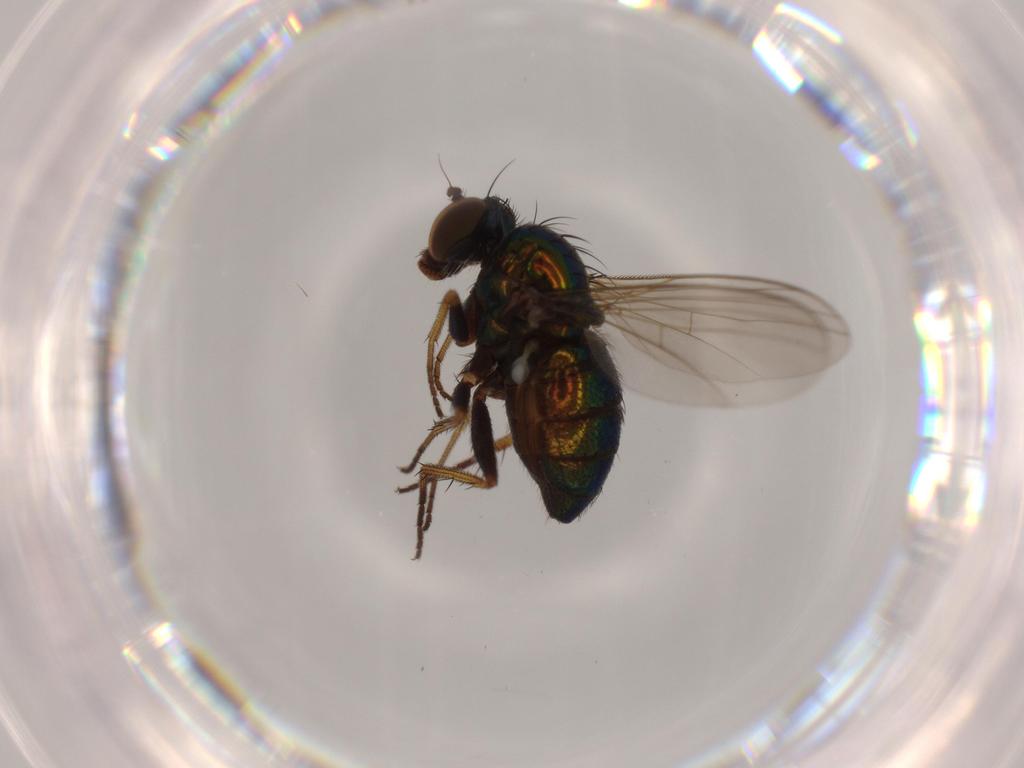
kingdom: Animalia
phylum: Arthropoda
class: Insecta
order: Diptera
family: Dolichopodidae
